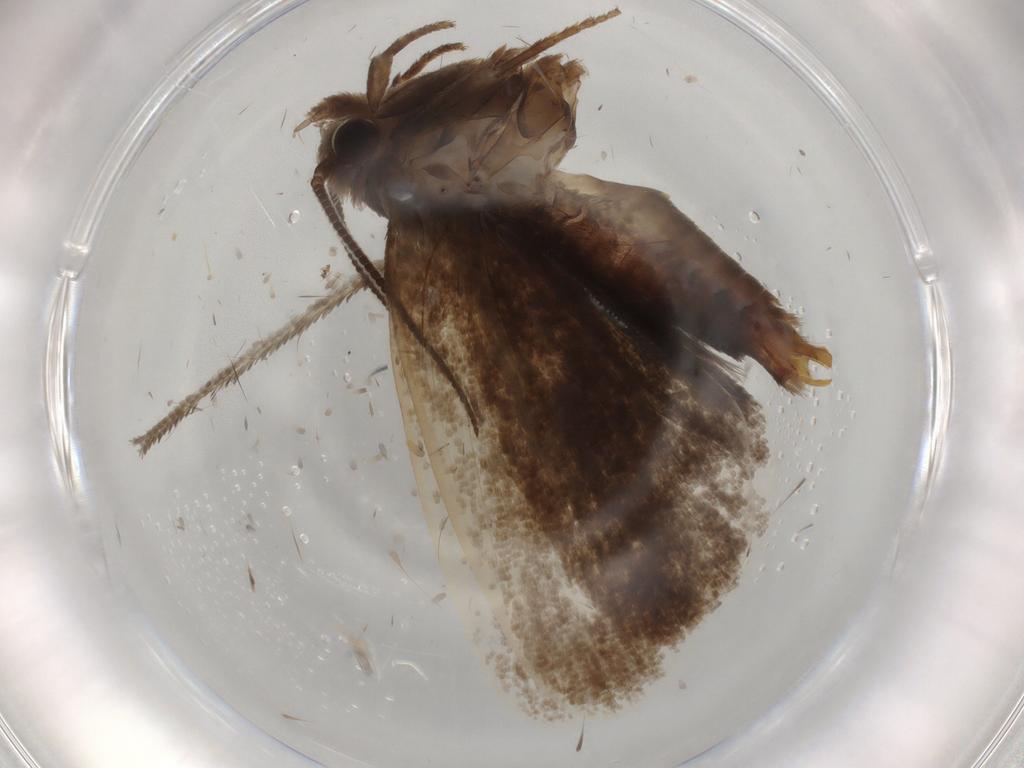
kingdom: Animalia
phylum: Arthropoda
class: Insecta
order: Lepidoptera
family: Tineidae
